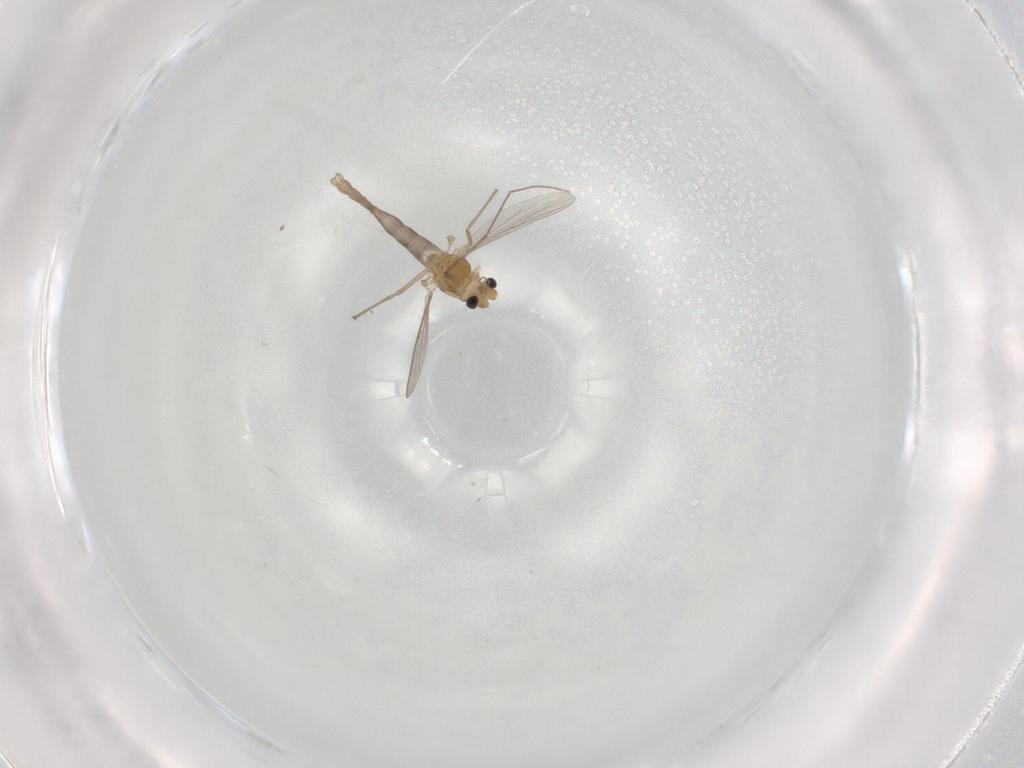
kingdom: Animalia
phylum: Arthropoda
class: Insecta
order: Diptera
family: Chironomidae
